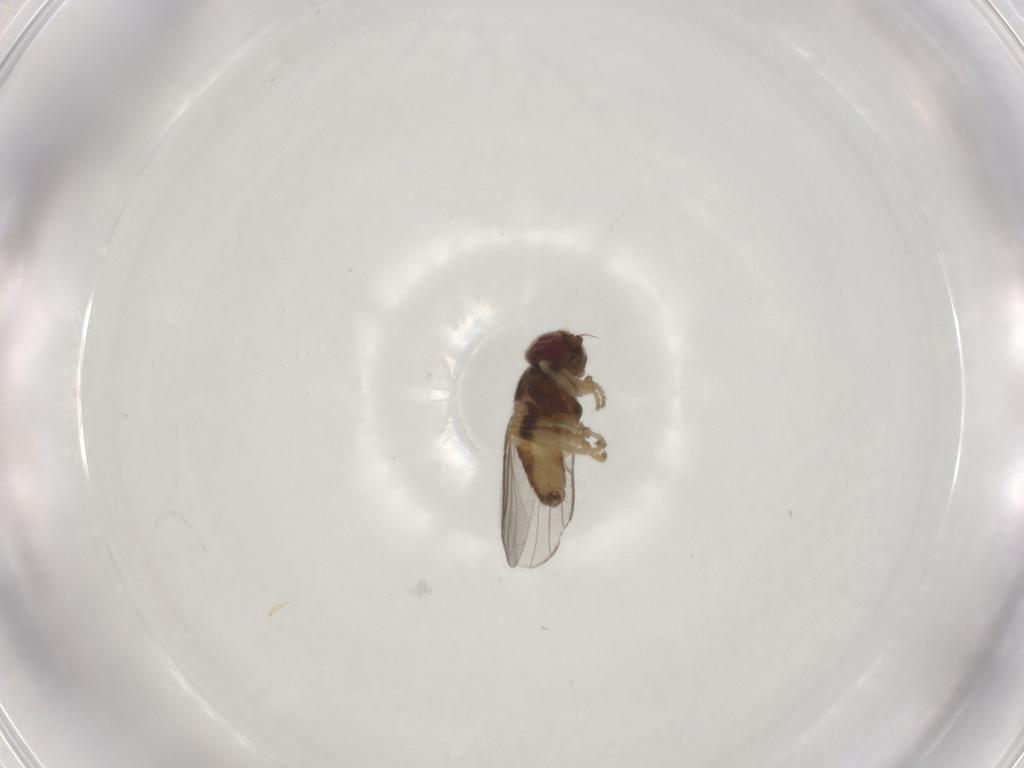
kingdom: Animalia
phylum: Arthropoda
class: Insecta
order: Diptera
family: Chloropidae
